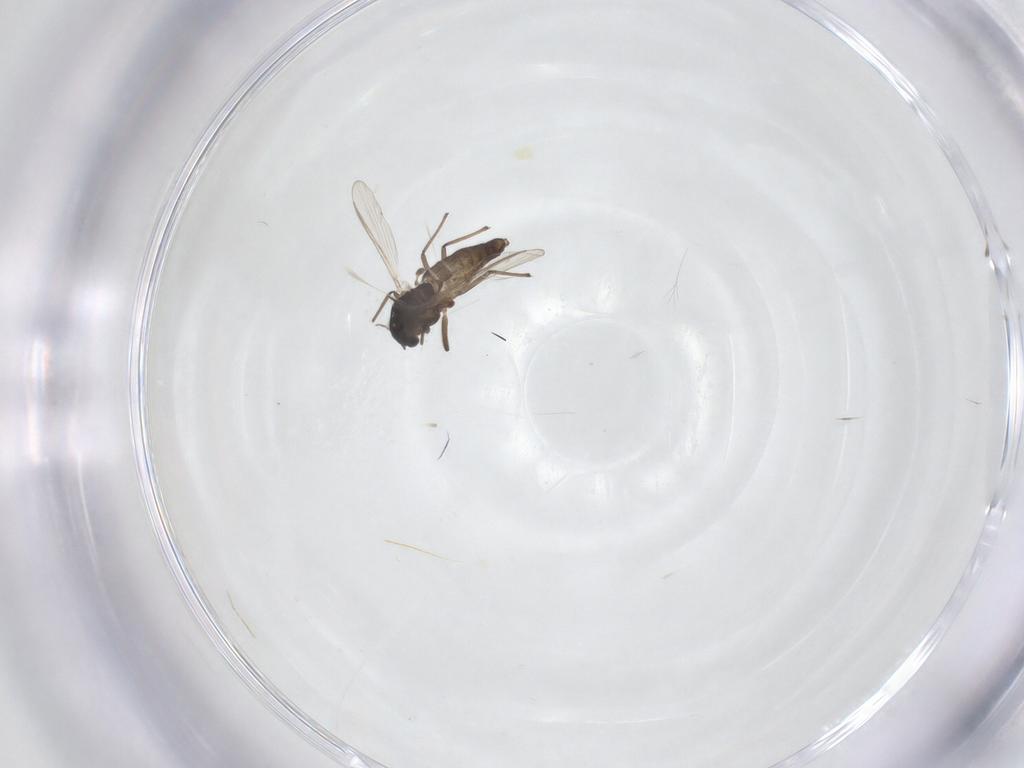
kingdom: Animalia
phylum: Arthropoda
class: Insecta
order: Diptera
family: Chironomidae
